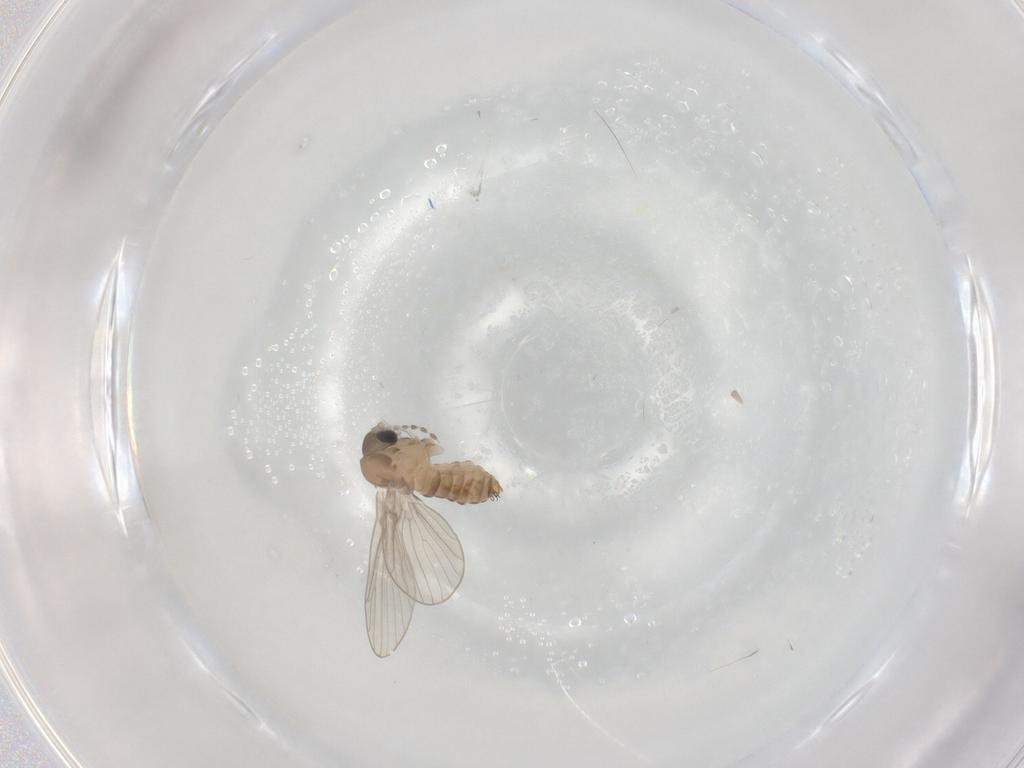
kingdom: Animalia
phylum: Arthropoda
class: Insecta
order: Diptera
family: Psychodidae
